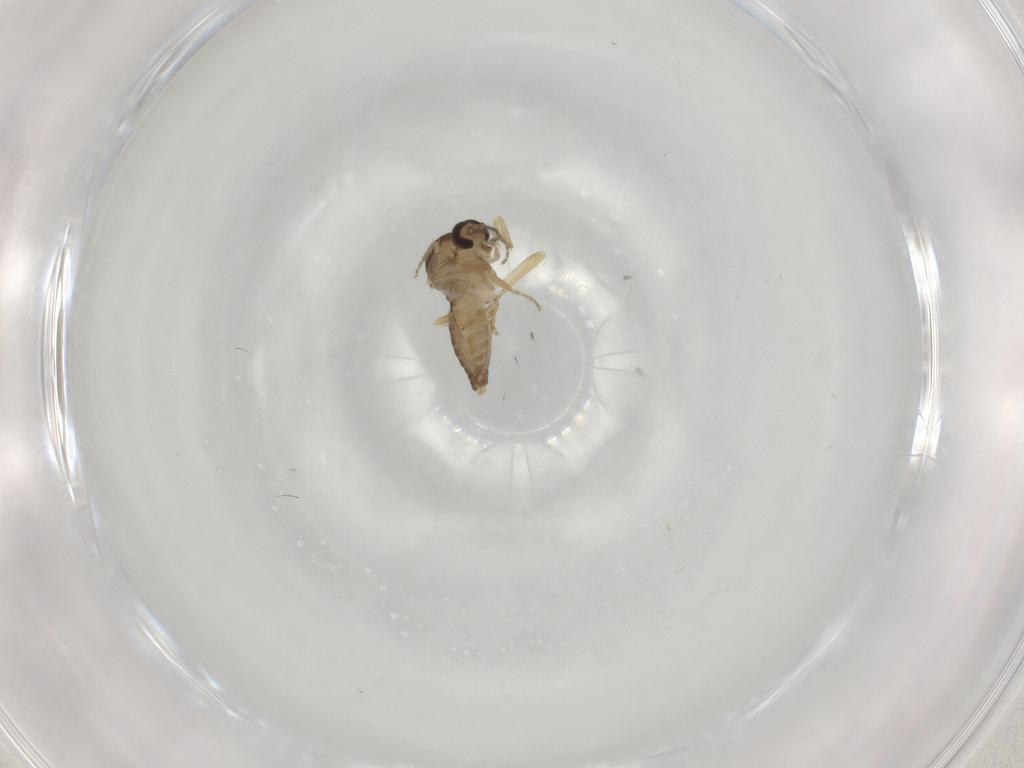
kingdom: Animalia
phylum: Arthropoda
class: Insecta
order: Diptera
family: Ceratopogonidae
